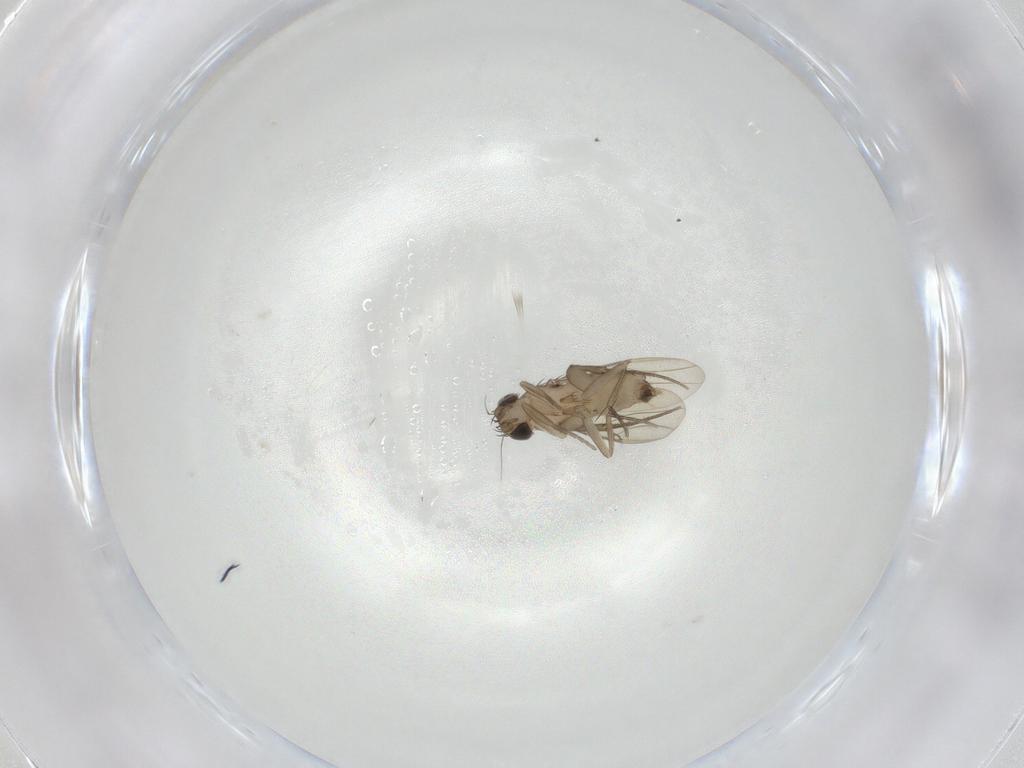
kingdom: Animalia
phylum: Arthropoda
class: Insecta
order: Diptera
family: Phoridae
